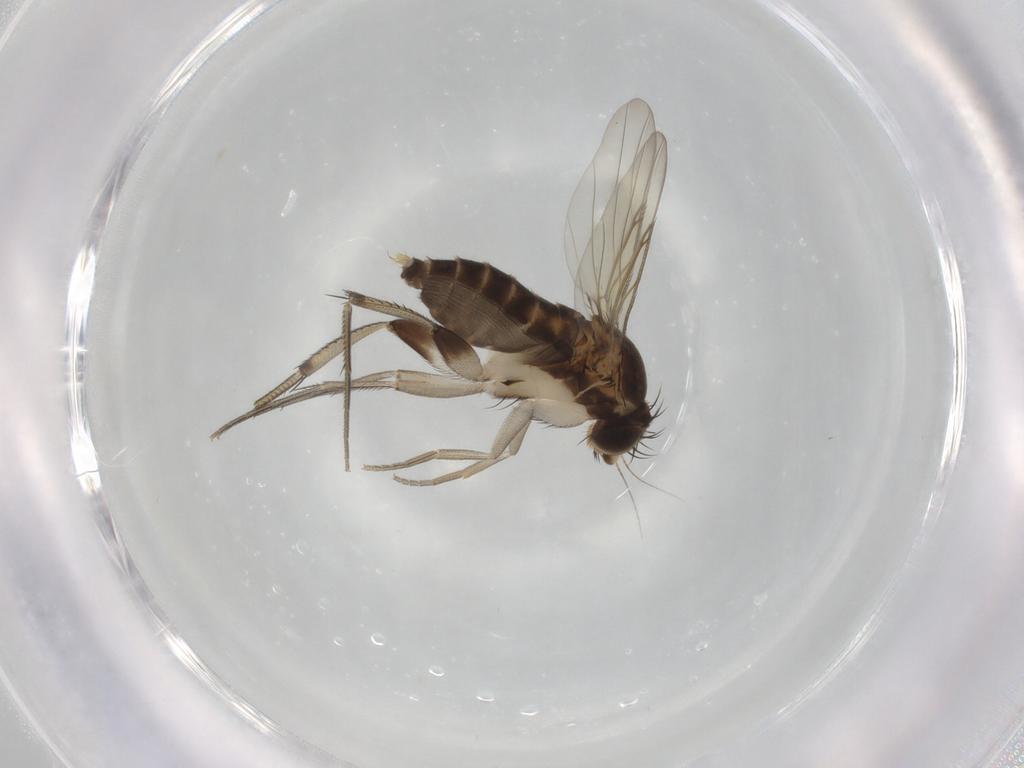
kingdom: Animalia
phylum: Arthropoda
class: Insecta
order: Diptera
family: Phoridae
